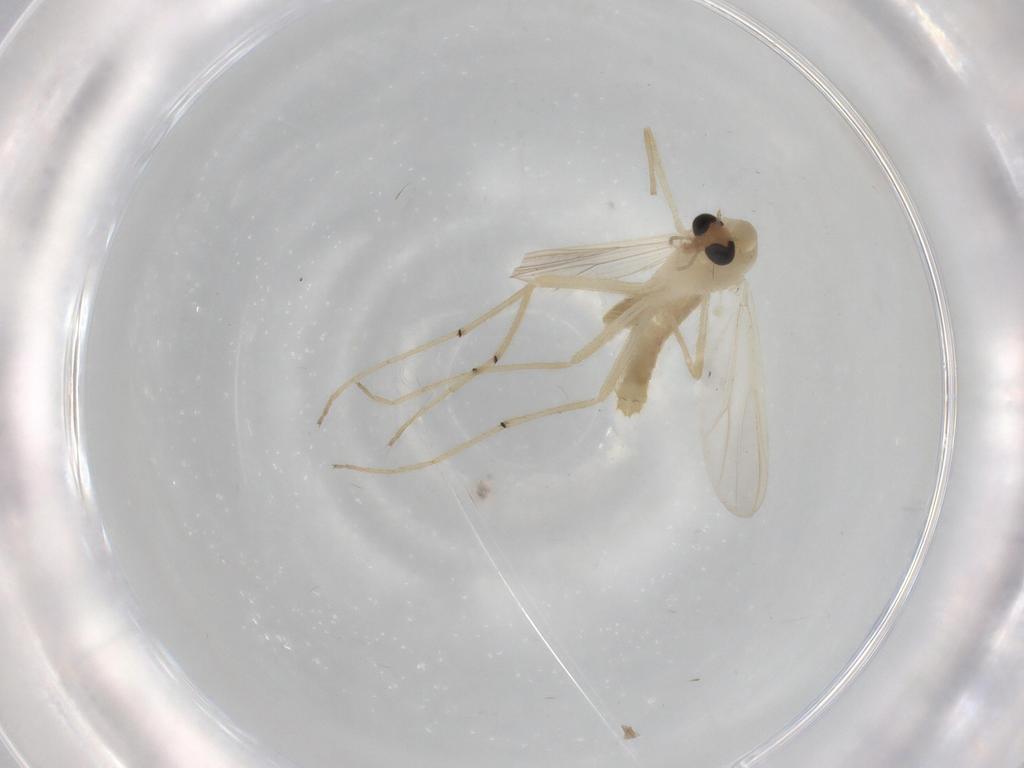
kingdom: Animalia
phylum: Arthropoda
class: Insecta
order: Diptera
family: Chironomidae
